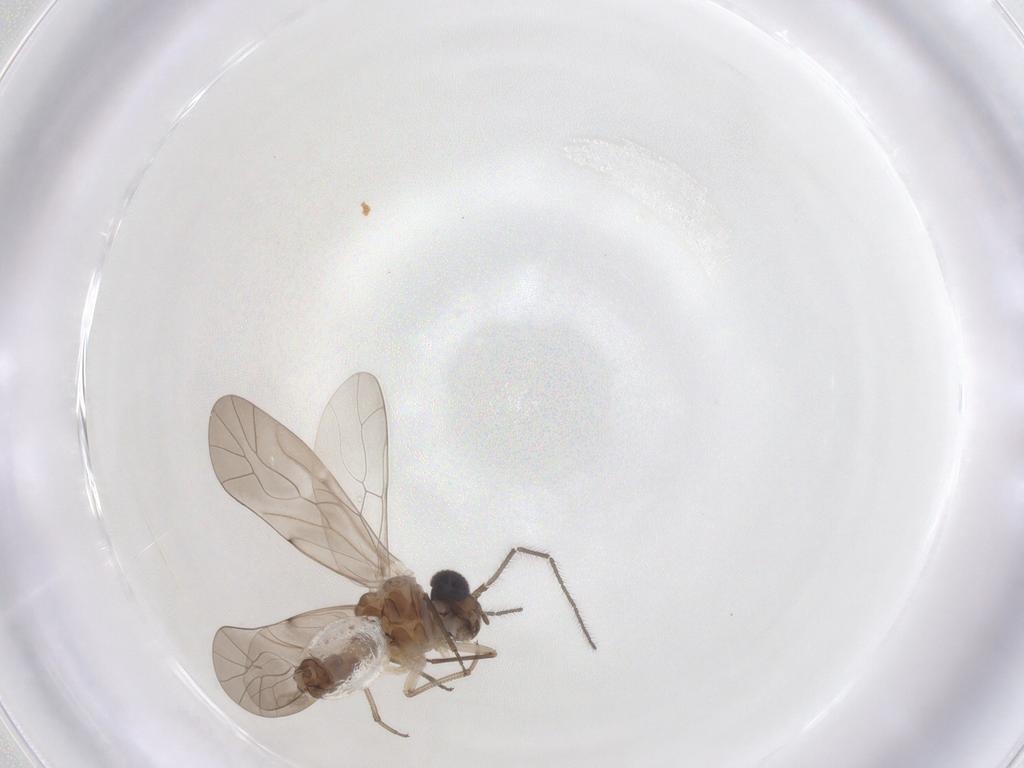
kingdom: Animalia
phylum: Arthropoda
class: Insecta
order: Psocodea
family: Peripsocidae
